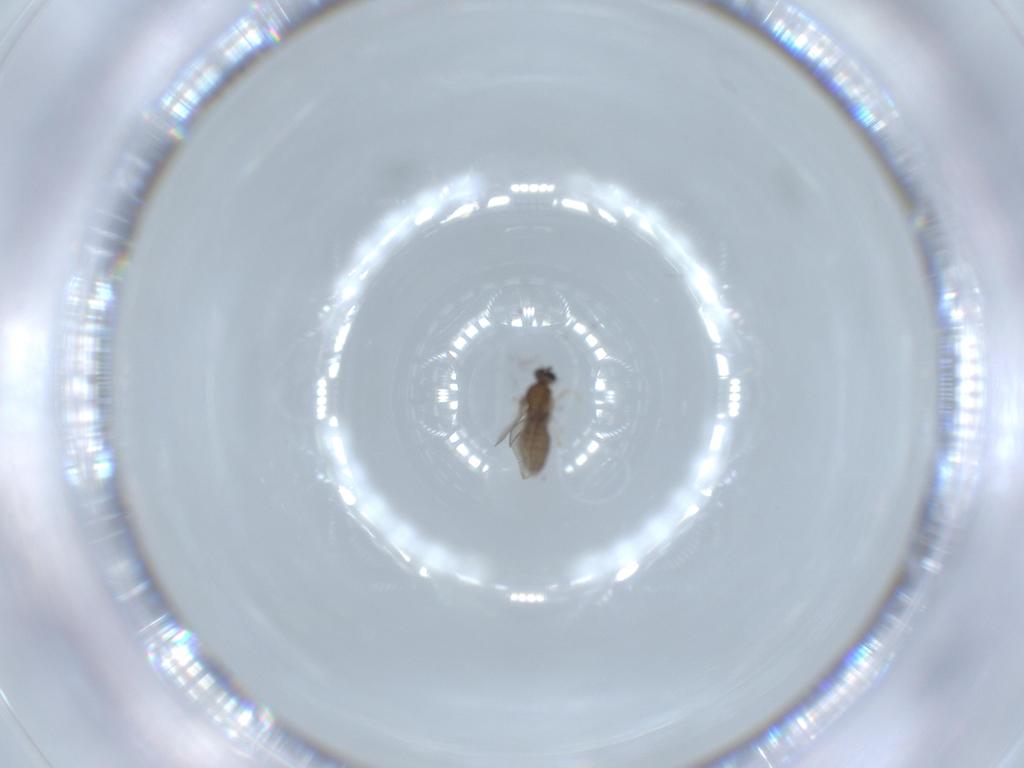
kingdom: Animalia
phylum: Arthropoda
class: Insecta
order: Diptera
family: Cecidomyiidae
